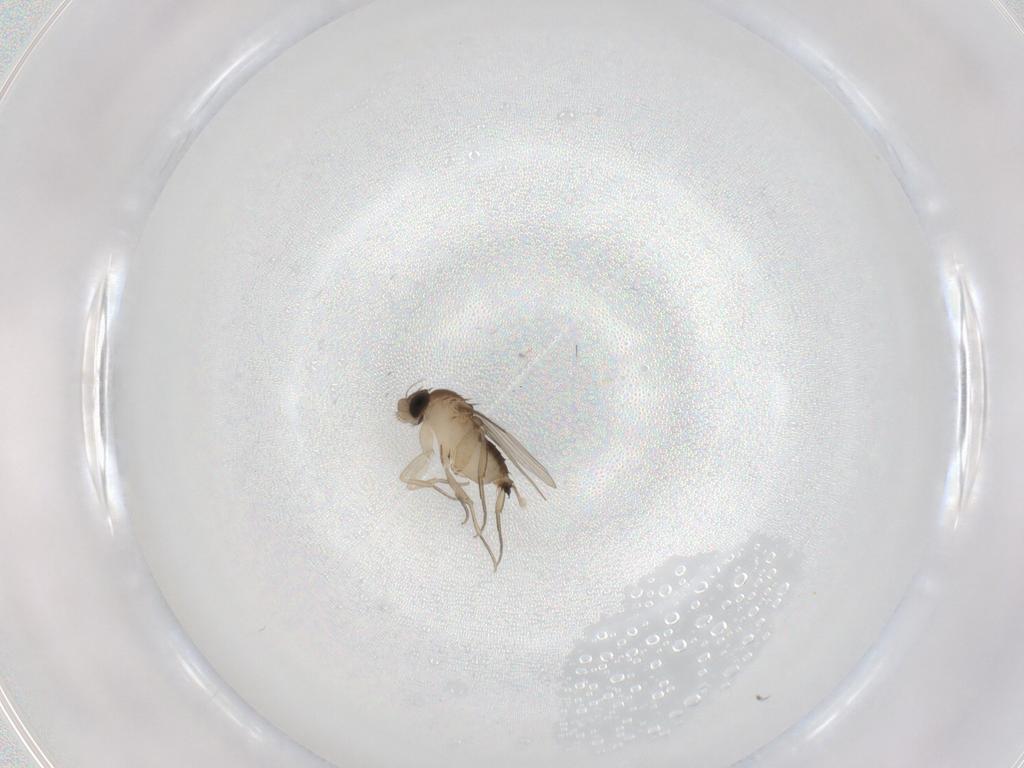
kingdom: Animalia
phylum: Arthropoda
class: Insecta
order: Diptera
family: Phoridae
